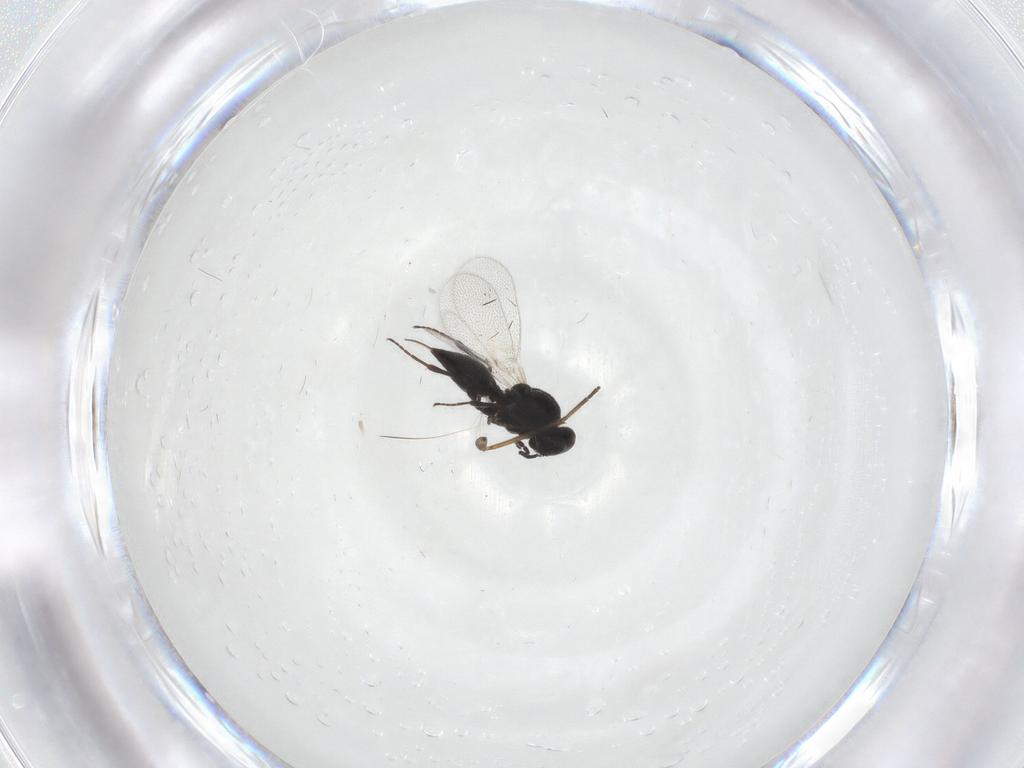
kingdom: Animalia
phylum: Arthropoda
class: Insecta
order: Hymenoptera
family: Platygastridae
